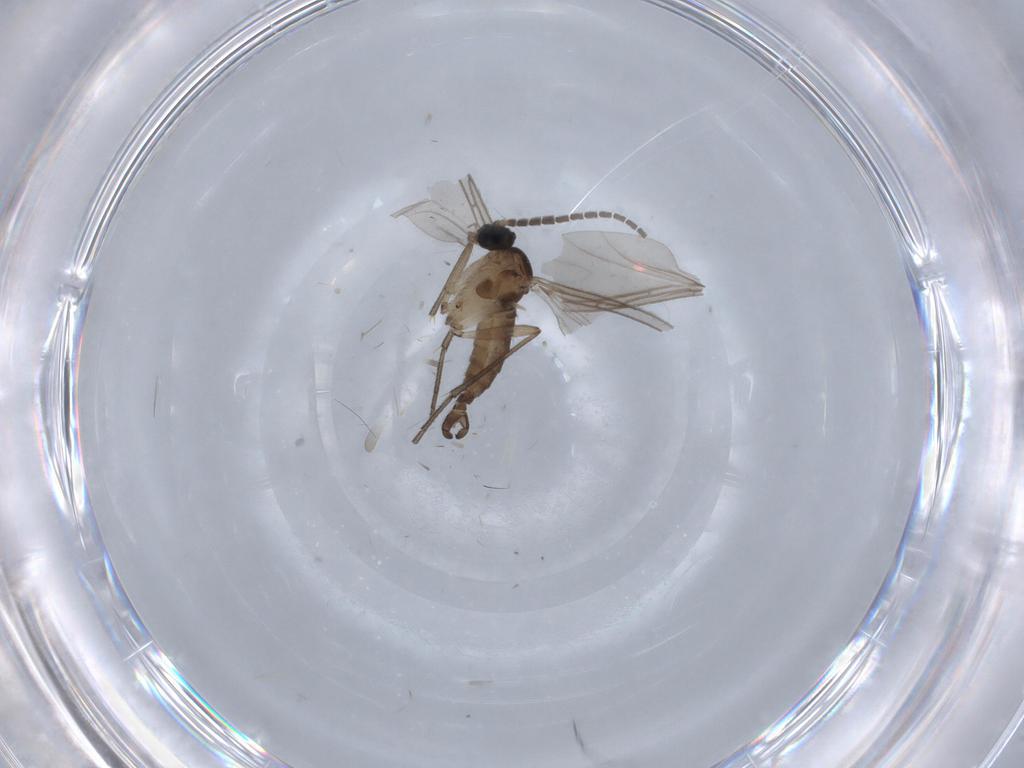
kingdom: Animalia
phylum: Arthropoda
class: Insecta
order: Diptera
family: Sciaridae
